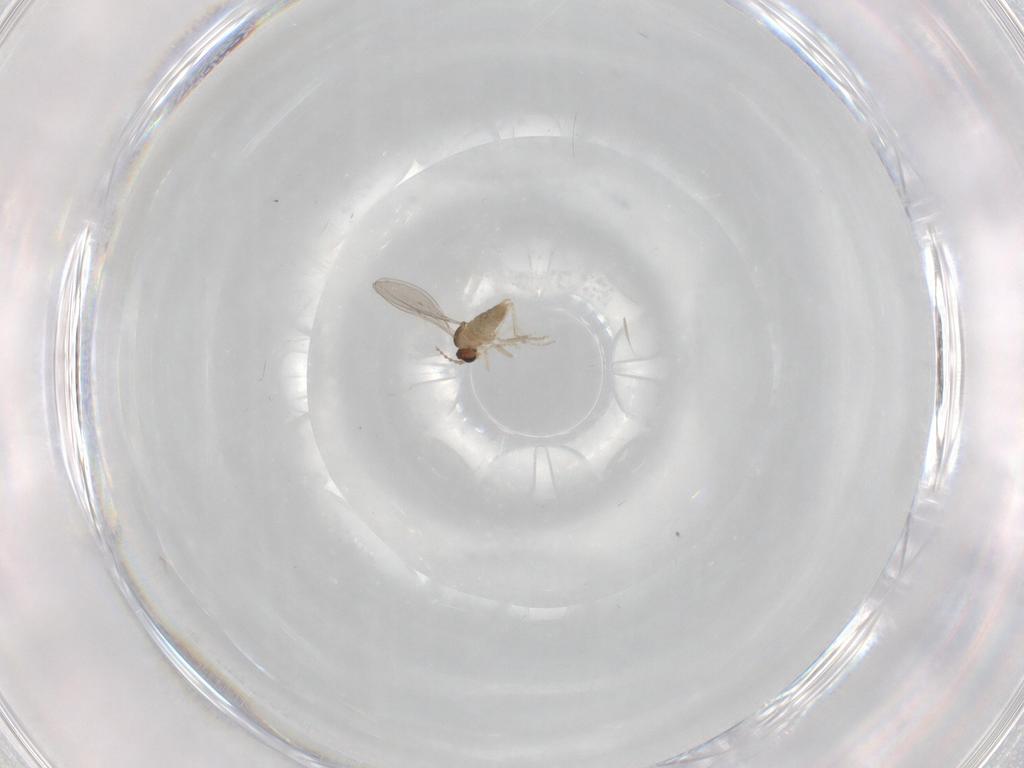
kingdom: Animalia
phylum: Arthropoda
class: Insecta
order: Diptera
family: Cecidomyiidae
